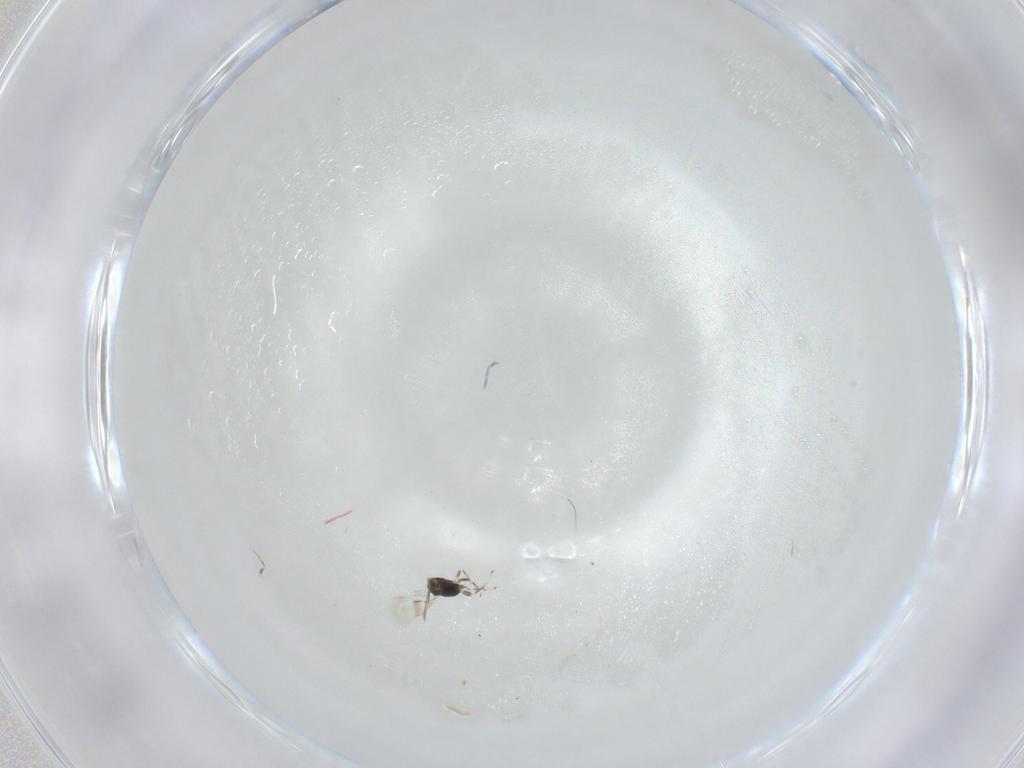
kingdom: Animalia
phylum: Arthropoda
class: Insecta
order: Hymenoptera
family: Azotidae
